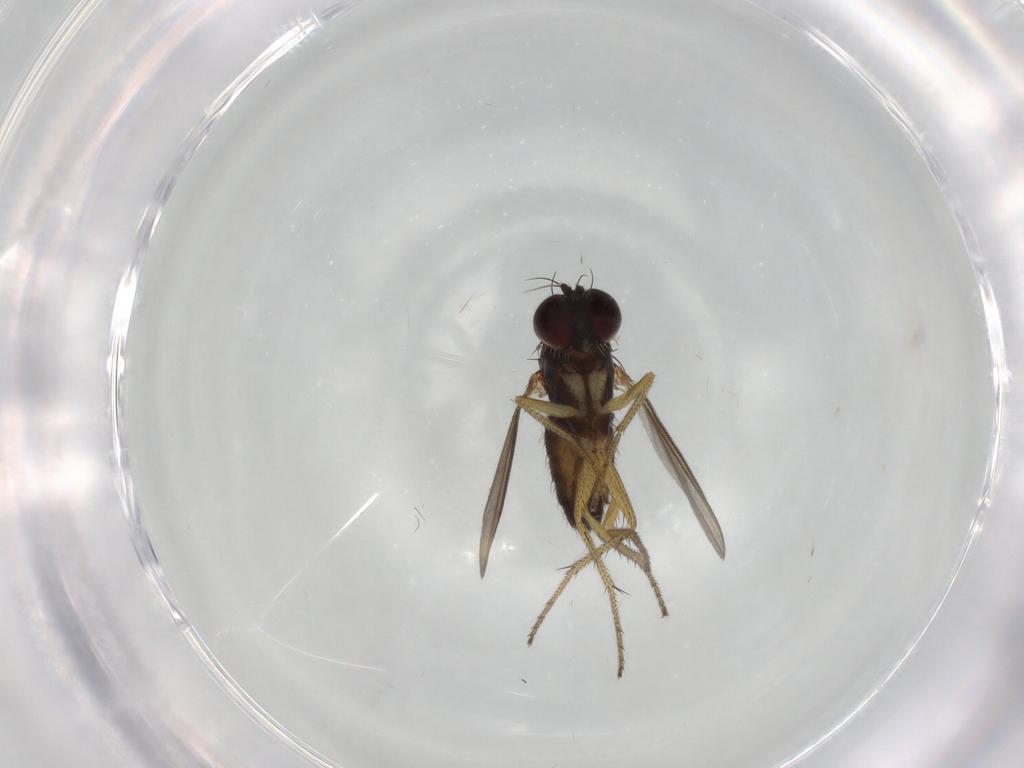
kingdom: Animalia
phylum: Arthropoda
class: Insecta
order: Diptera
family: Dolichopodidae
